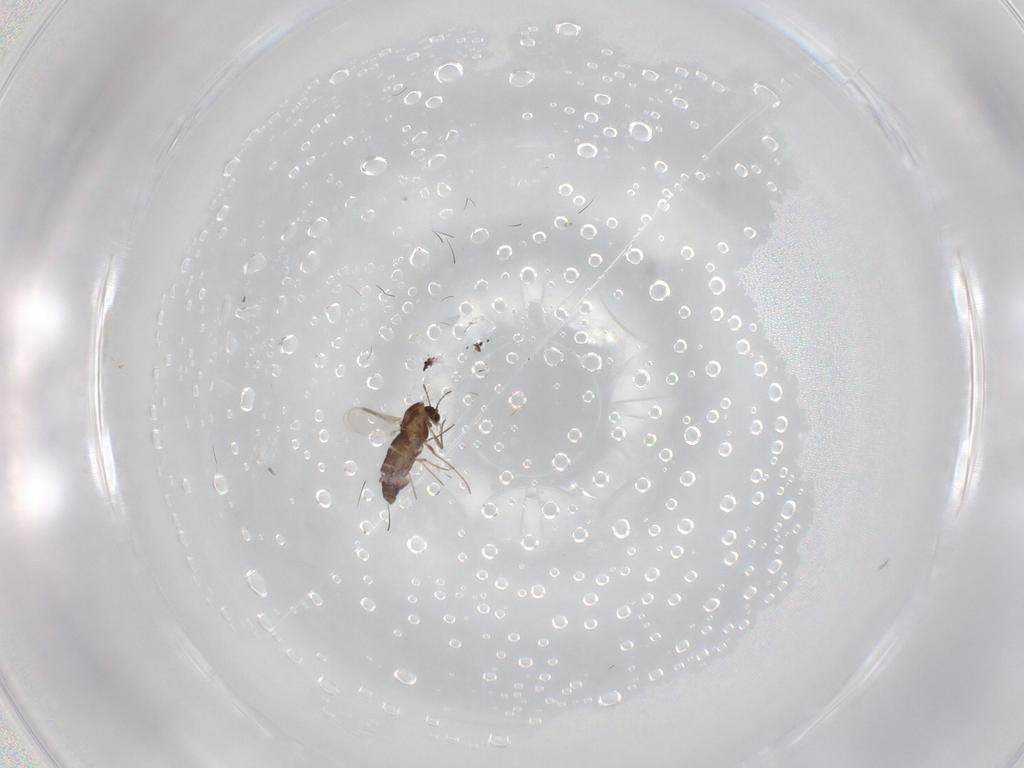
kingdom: Animalia
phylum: Arthropoda
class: Insecta
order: Diptera
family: Chironomidae
